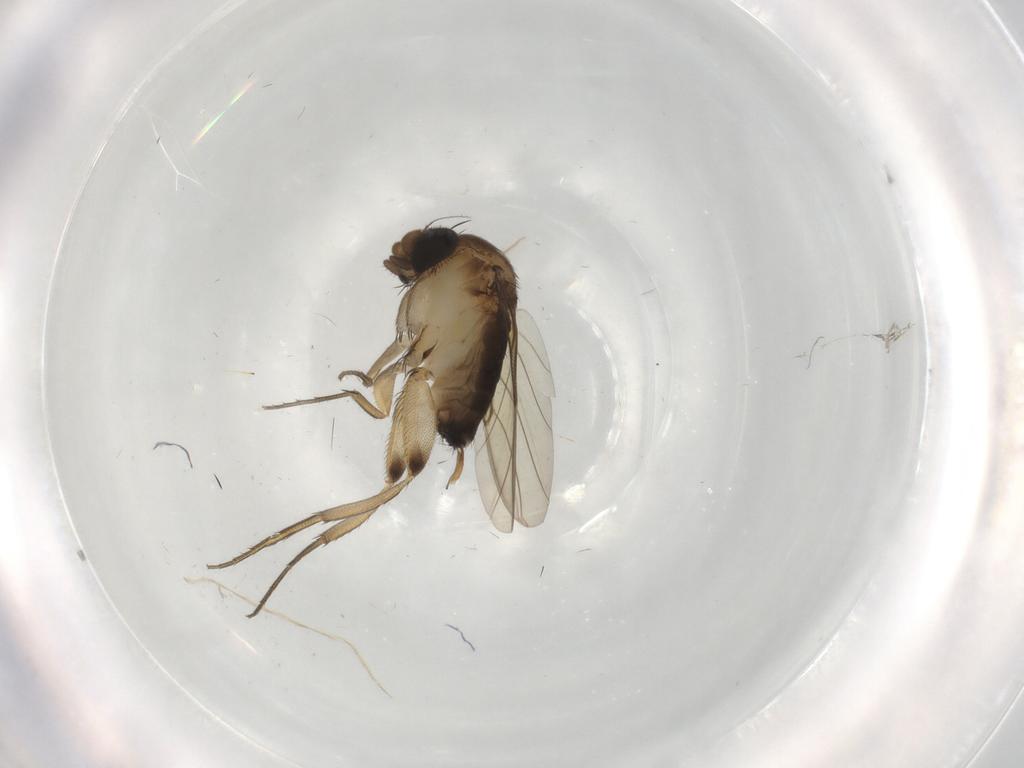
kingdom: Animalia
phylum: Arthropoda
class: Insecta
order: Diptera
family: Phoridae
